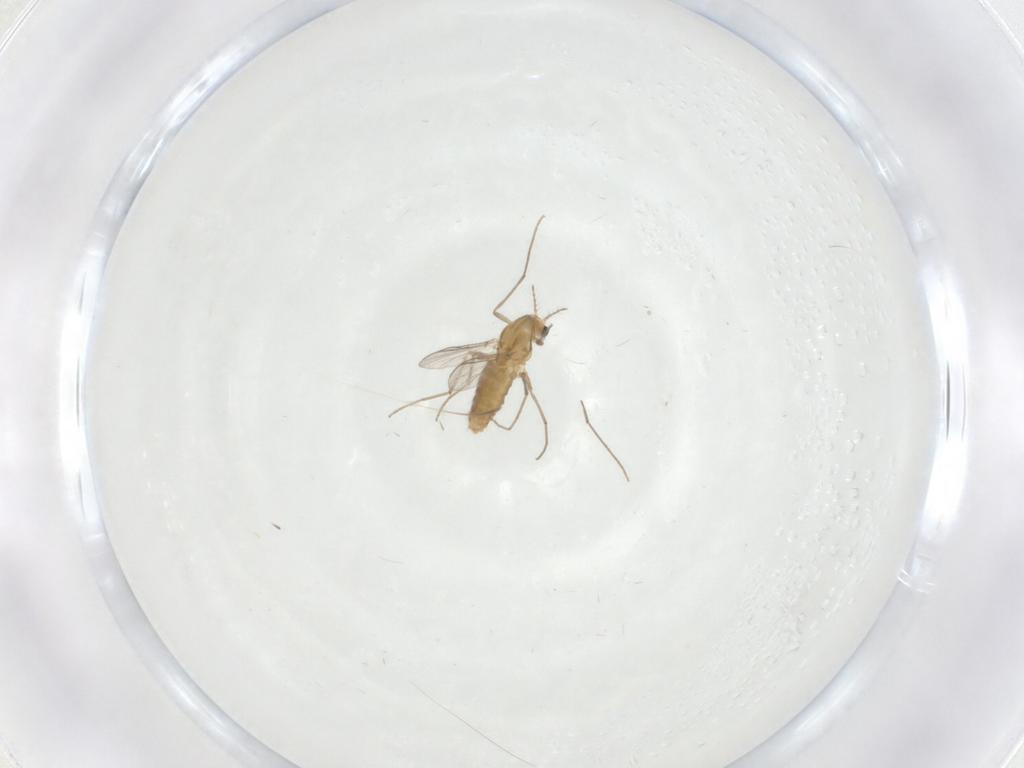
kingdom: Animalia
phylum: Arthropoda
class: Insecta
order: Diptera
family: Chironomidae
